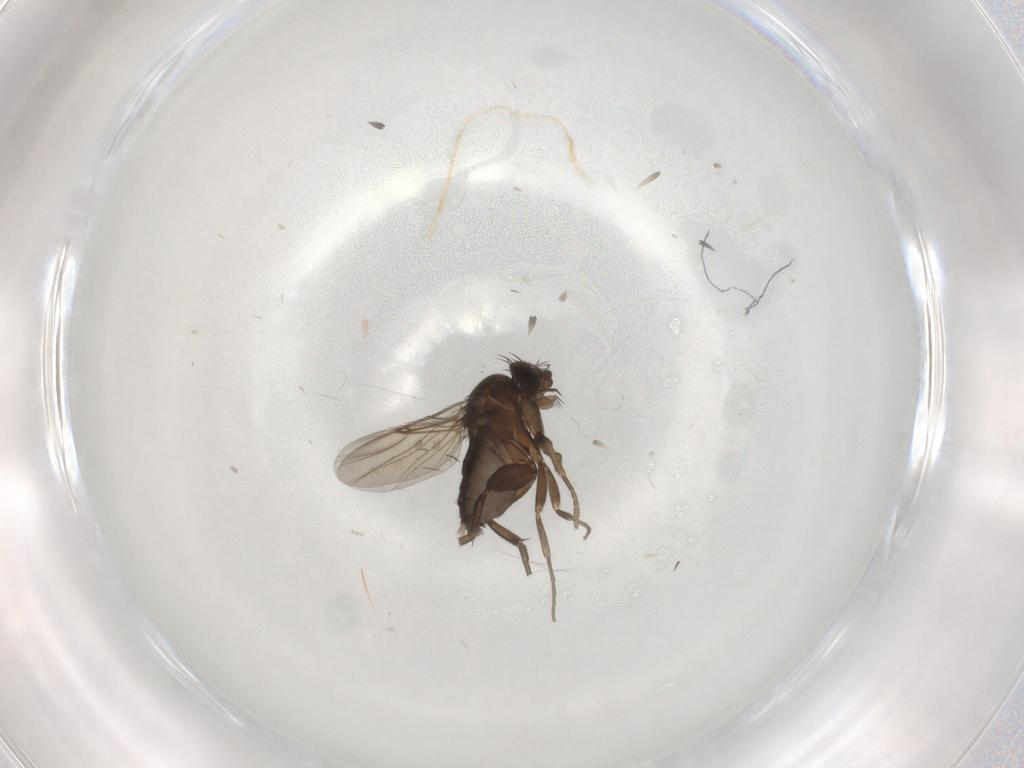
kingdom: Animalia
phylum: Arthropoda
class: Insecta
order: Diptera
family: Phoridae
